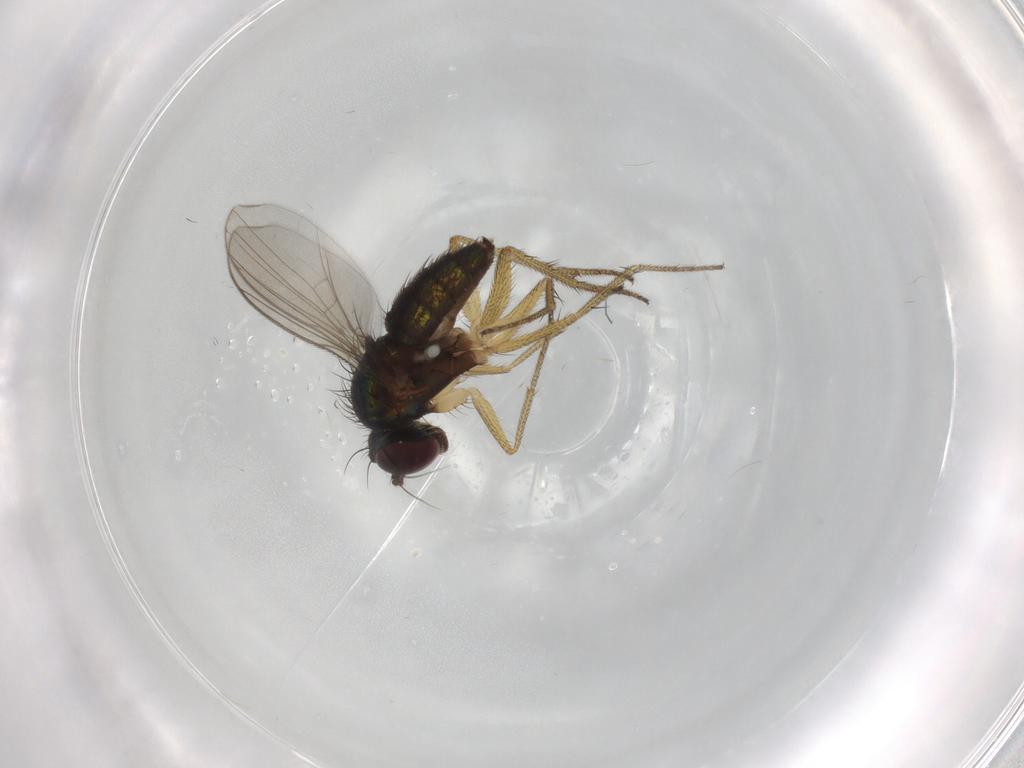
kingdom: Animalia
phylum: Arthropoda
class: Insecta
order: Diptera
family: Dolichopodidae
